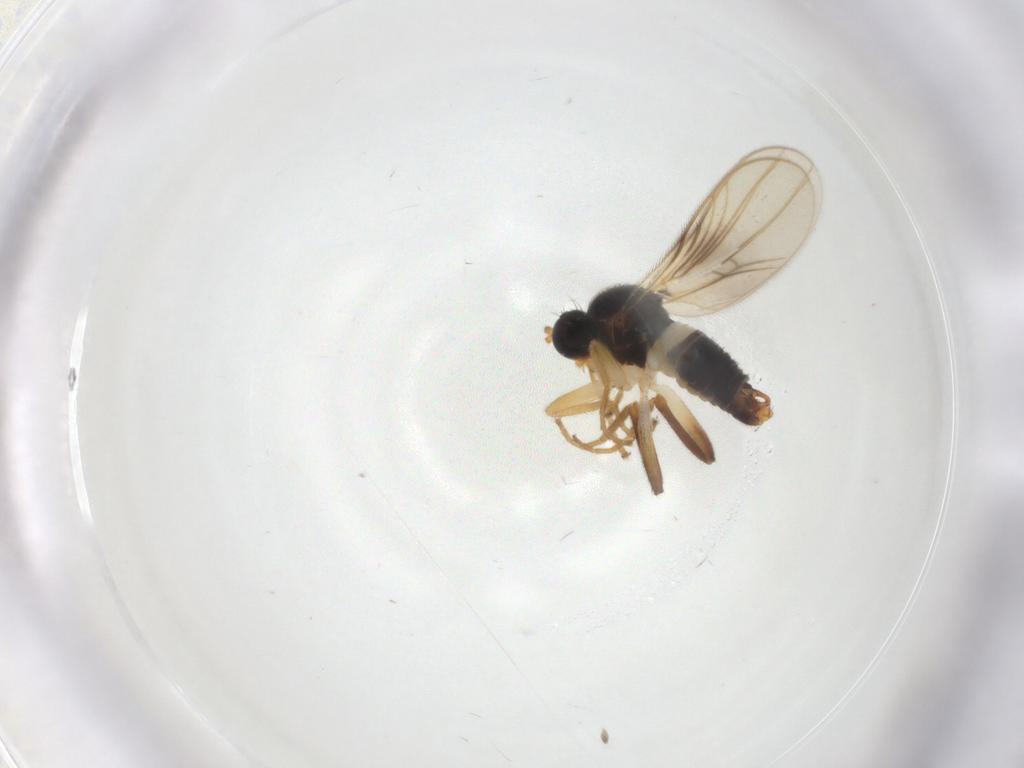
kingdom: Animalia
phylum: Arthropoda
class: Insecta
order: Diptera
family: Hybotidae
